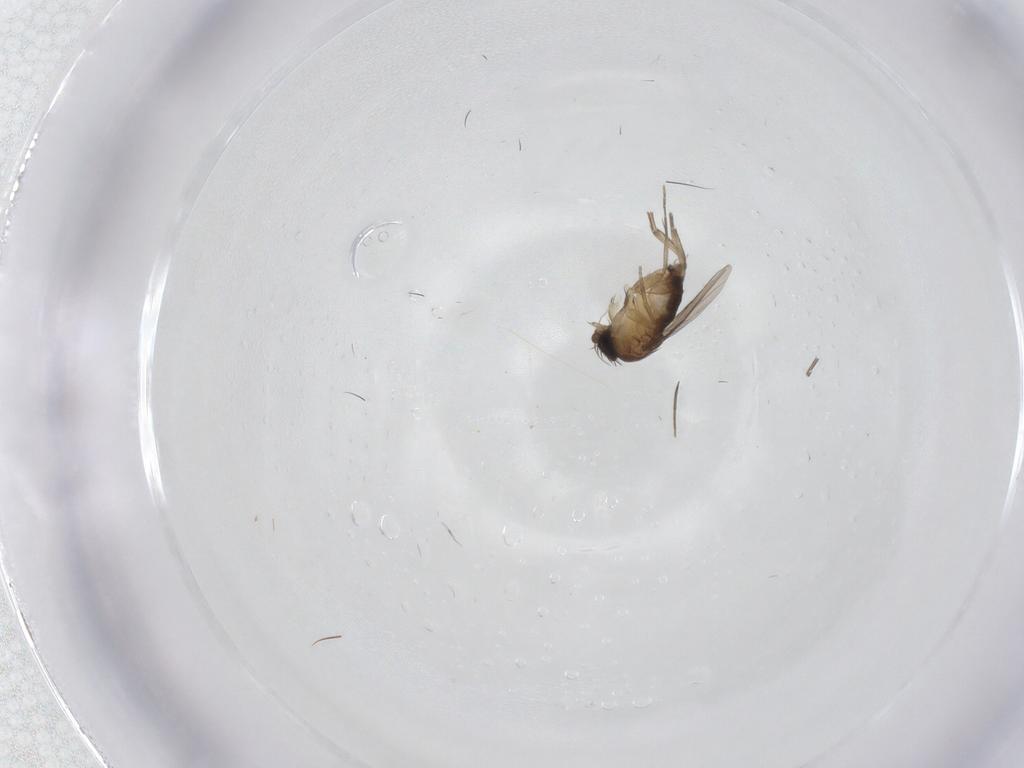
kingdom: Animalia
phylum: Arthropoda
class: Insecta
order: Diptera
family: Phoridae
